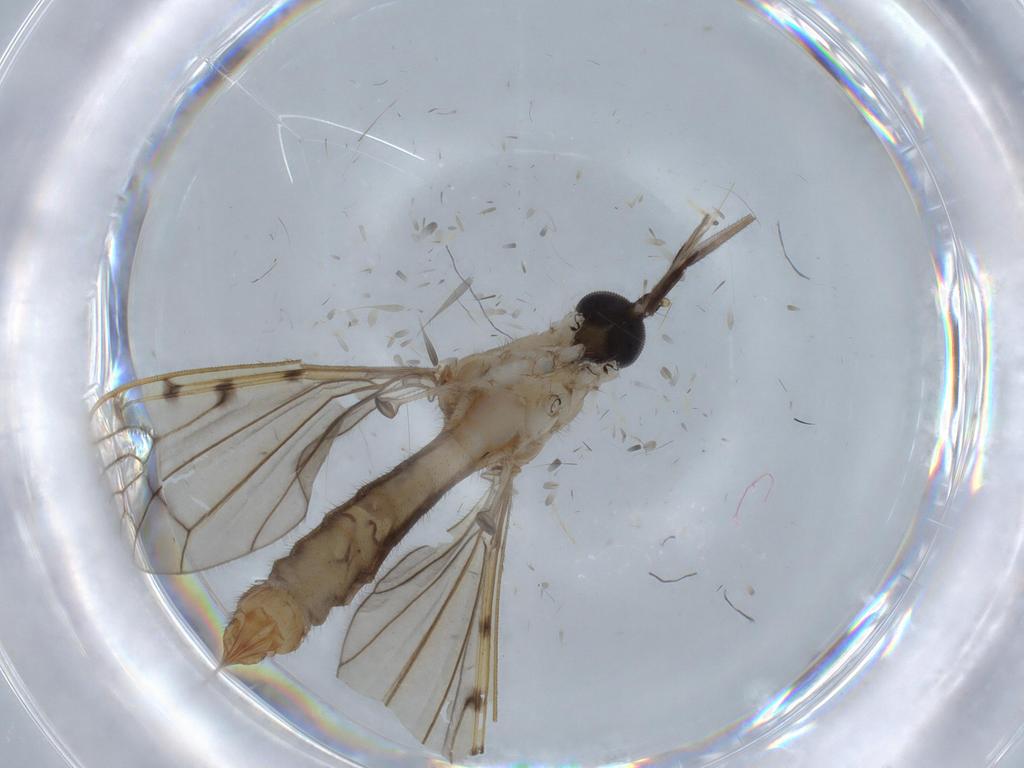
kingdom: Animalia
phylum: Arthropoda
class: Insecta
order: Diptera
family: Chironomidae
